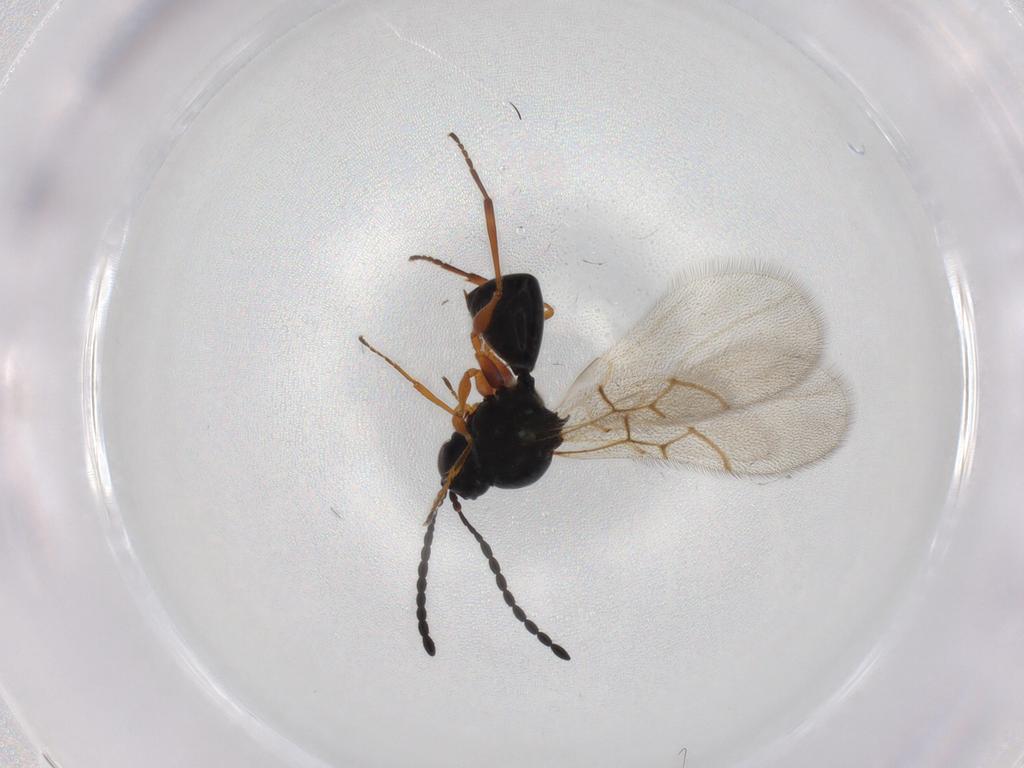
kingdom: Animalia
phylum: Arthropoda
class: Insecta
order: Hymenoptera
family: Figitidae
